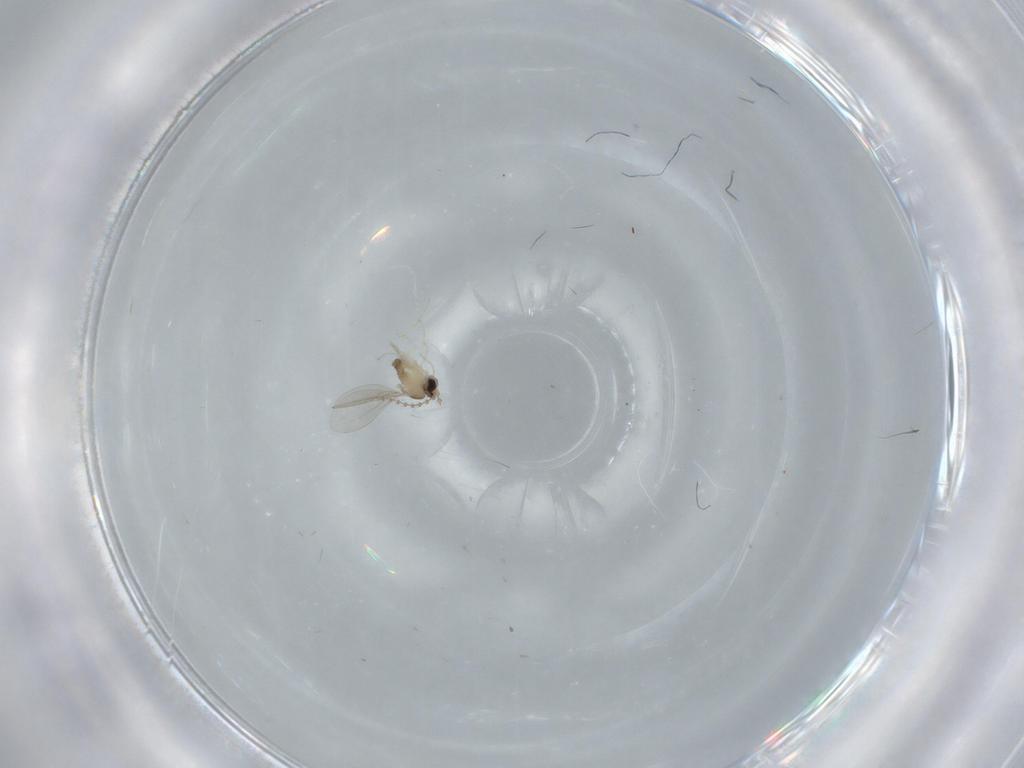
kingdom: Animalia
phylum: Arthropoda
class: Insecta
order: Diptera
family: Cecidomyiidae
